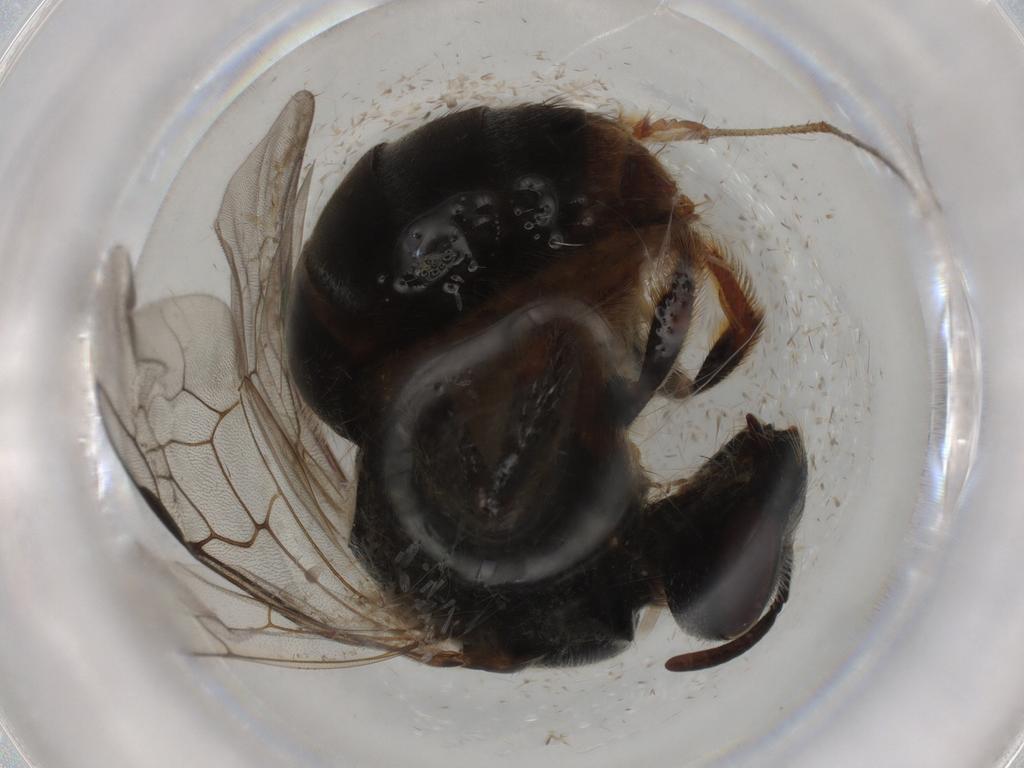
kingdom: Animalia
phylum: Arthropoda
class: Insecta
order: Hymenoptera
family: Halictidae
